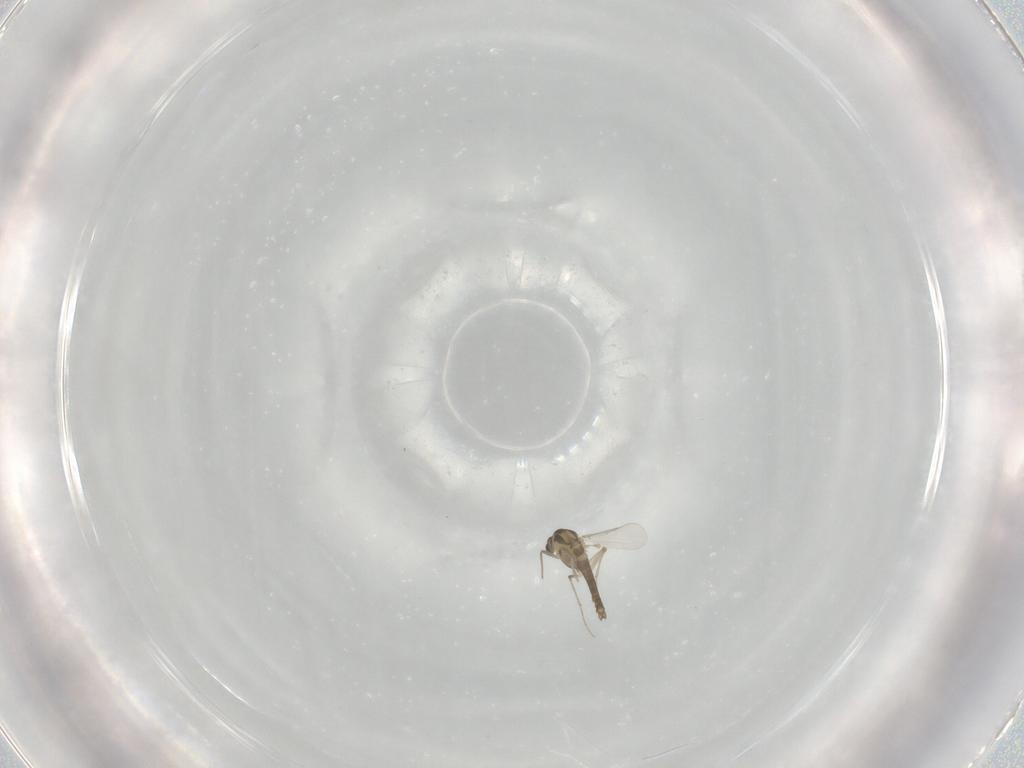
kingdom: Animalia
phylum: Arthropoda
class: Insecta
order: Diptera
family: Chironomidae
